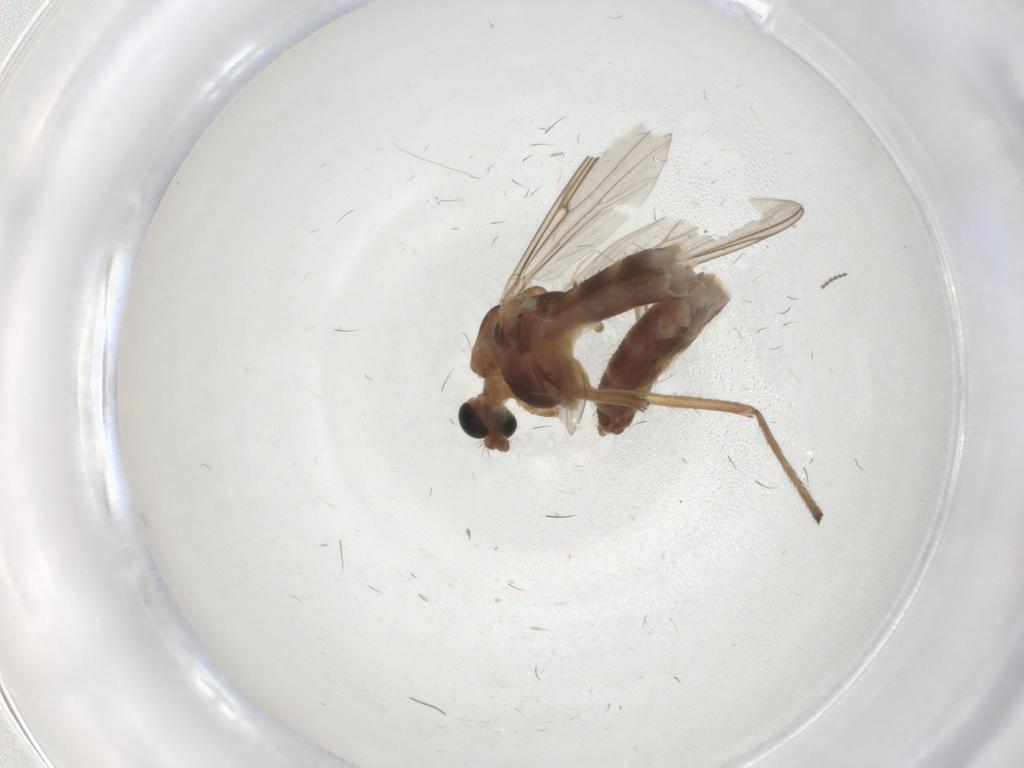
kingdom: Animalia
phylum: Arthropoda
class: Insecta
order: Diptera
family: Chironomidae
